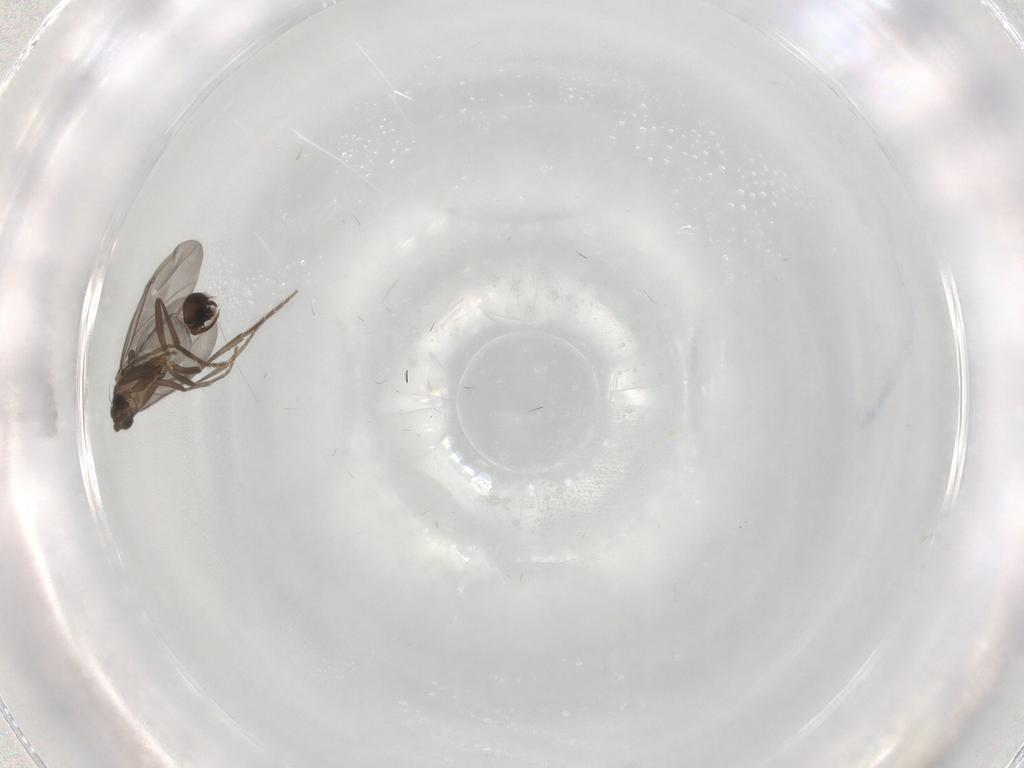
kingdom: Animalia
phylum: Arthropoda
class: Insecta
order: Diptera
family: Phoridae
